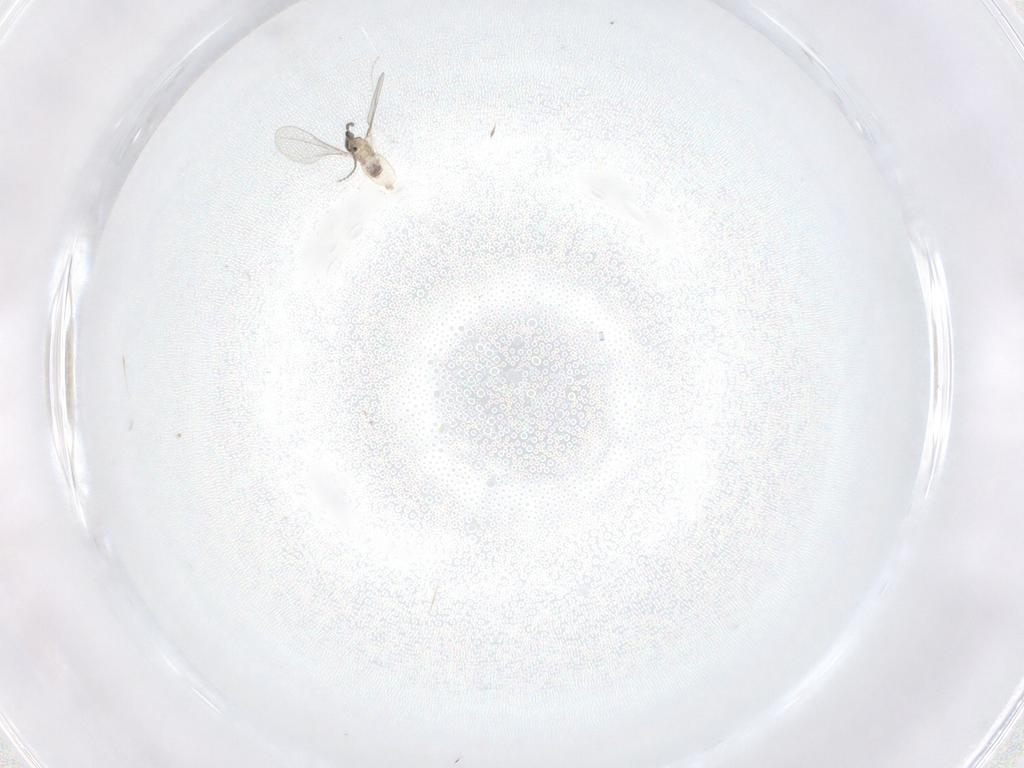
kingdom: Animalia
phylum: Arthropoda
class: Insecta
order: Diptera
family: Cecidomyiidae
